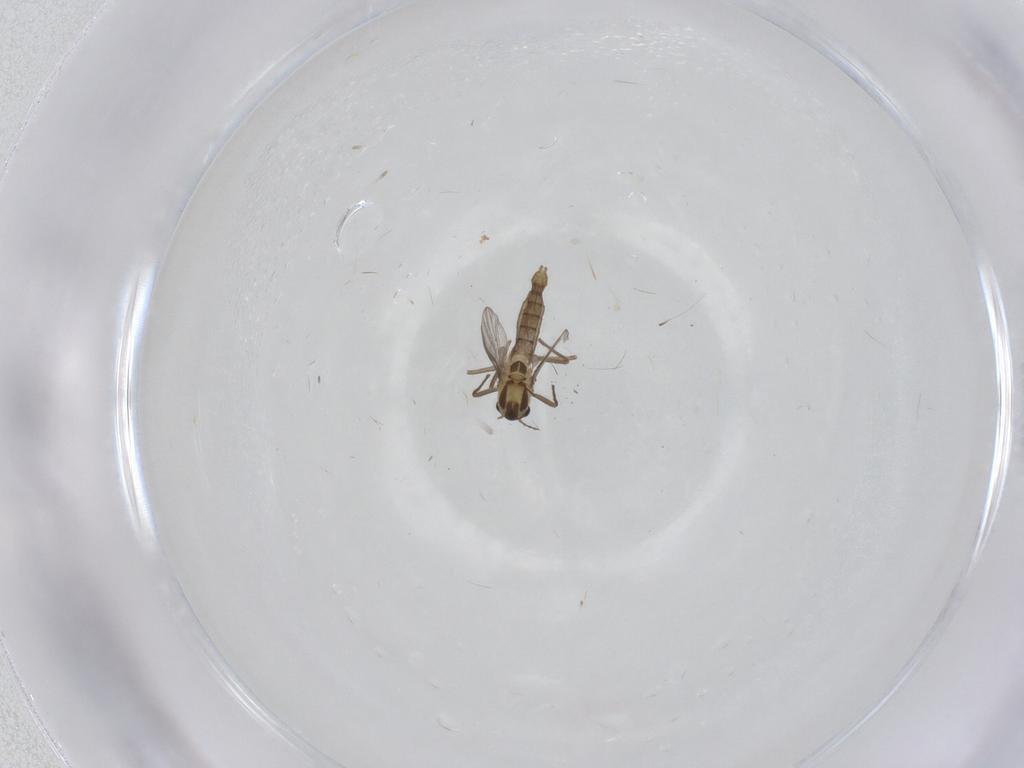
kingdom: Animalia
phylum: Arthropoda
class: Insecta
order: Diptera
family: Chironomidae
